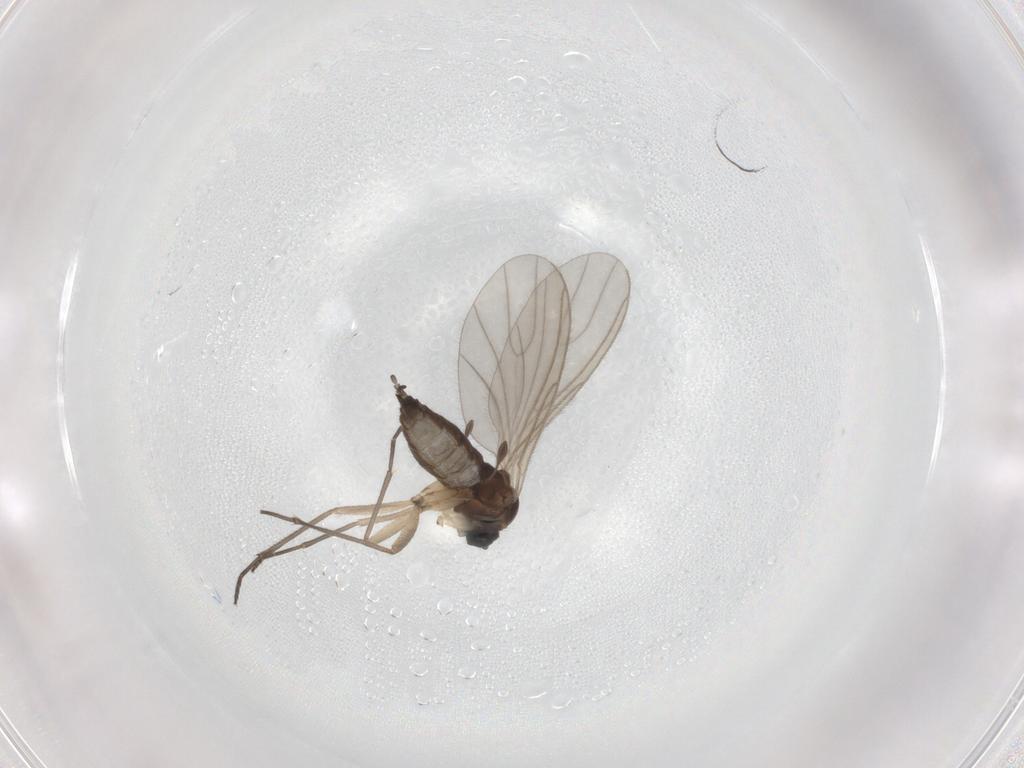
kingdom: Animalia
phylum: Arthropoda
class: Insecta
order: Diptera
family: Sciaridae
